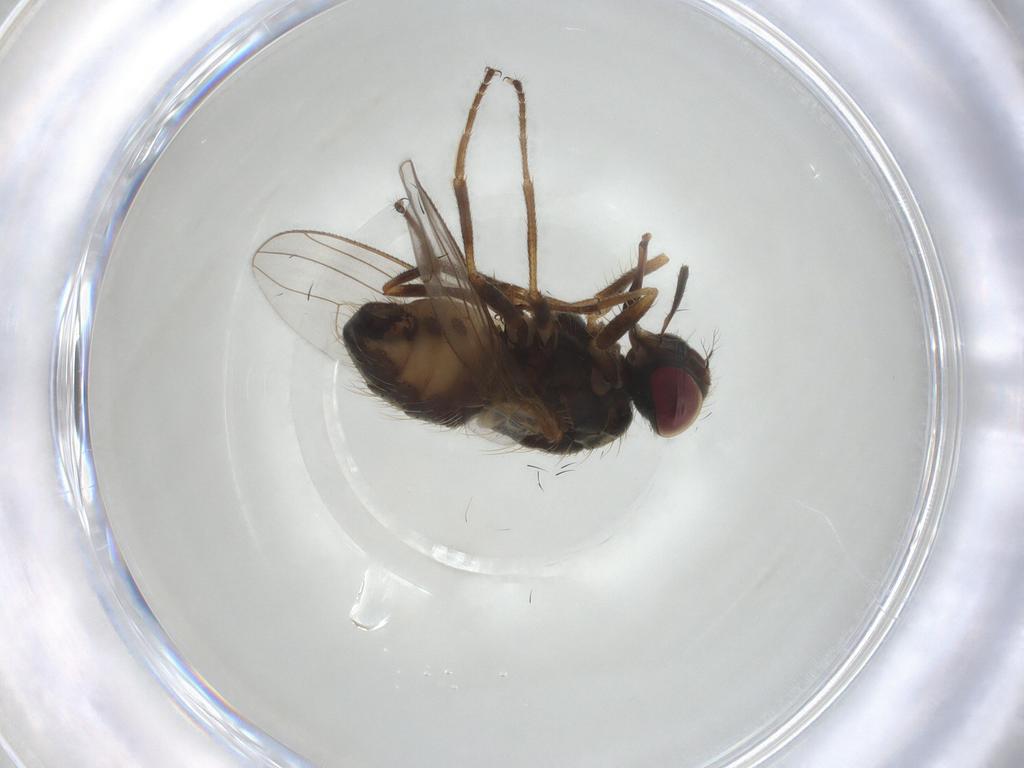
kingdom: Animalia
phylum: Arthropoda
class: Insecta
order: Diptera
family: Muscidae
